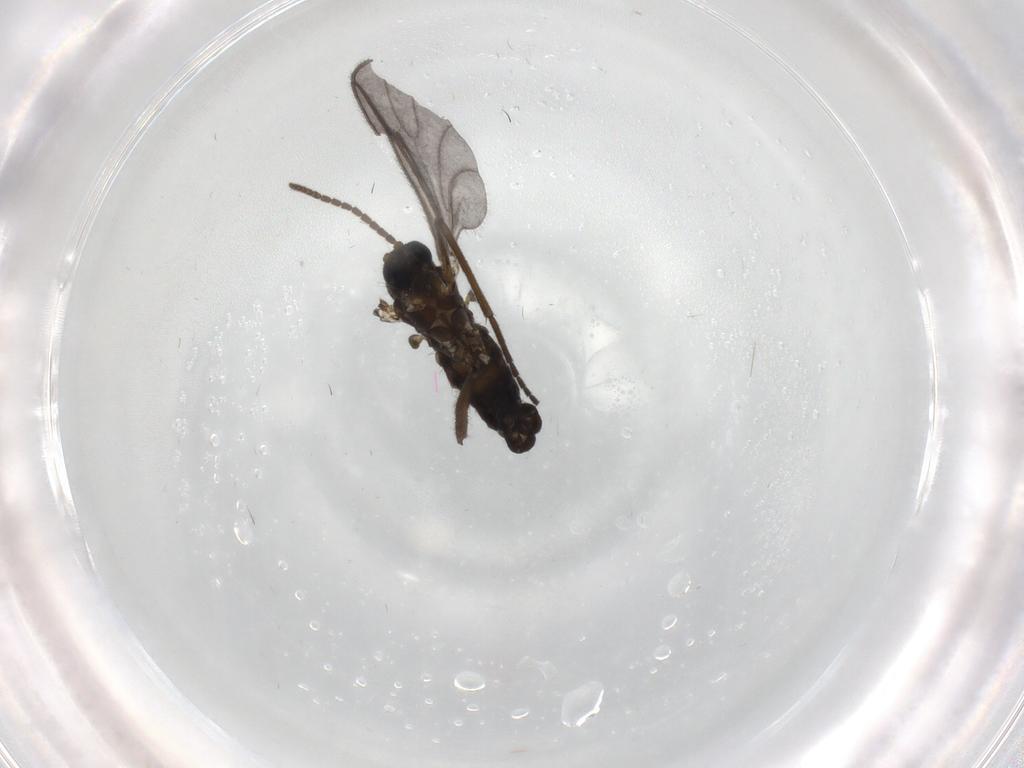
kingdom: Animalia
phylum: Arthropoda
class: Insecta
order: Diptera
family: Sciaridae
